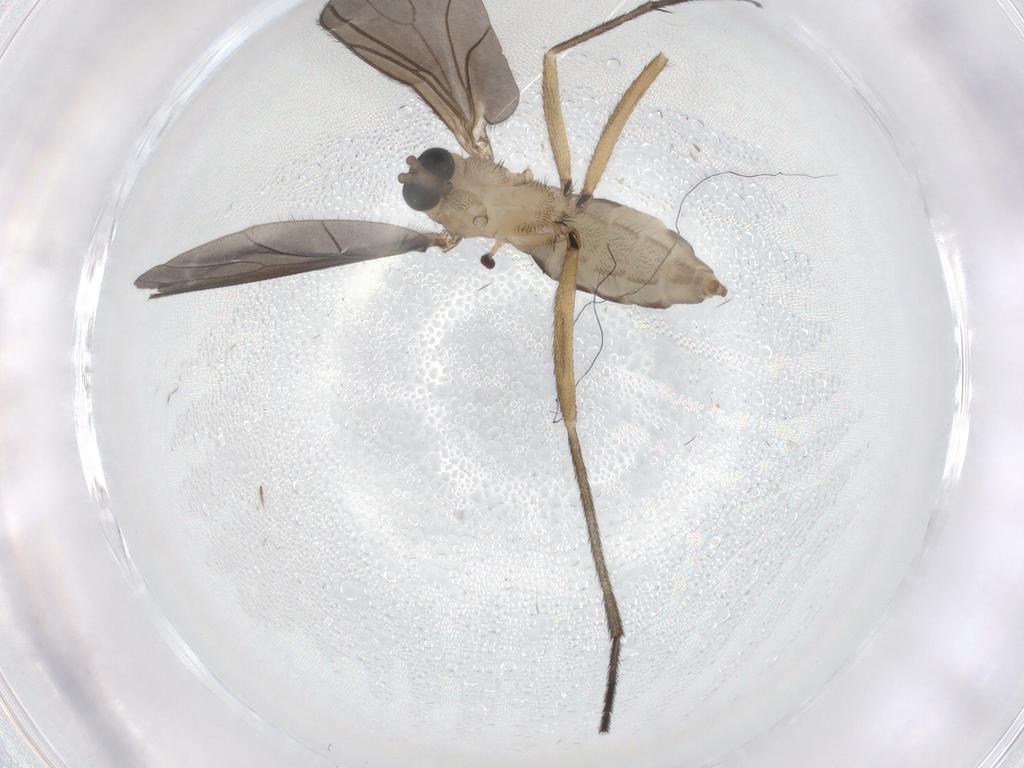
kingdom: Animalia
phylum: Arthropoda
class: Insecta
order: Diptera
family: Sciaridae
